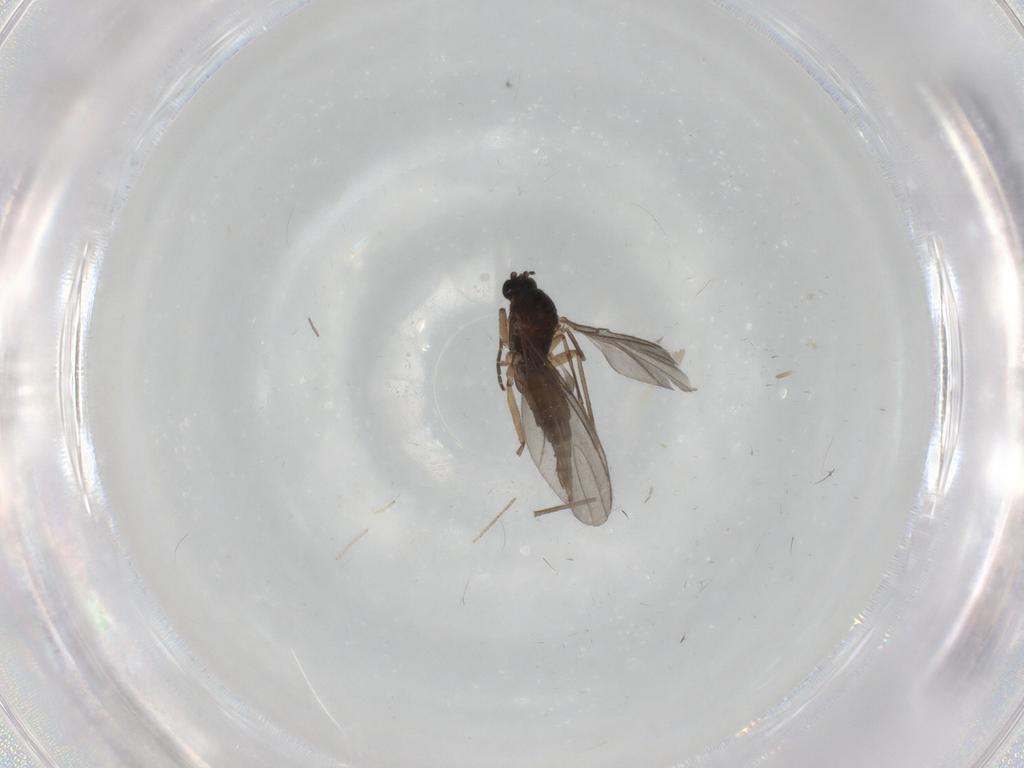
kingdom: Animalia
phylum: Arthropoda
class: Insecta
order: Diptera
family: Sciaridae
